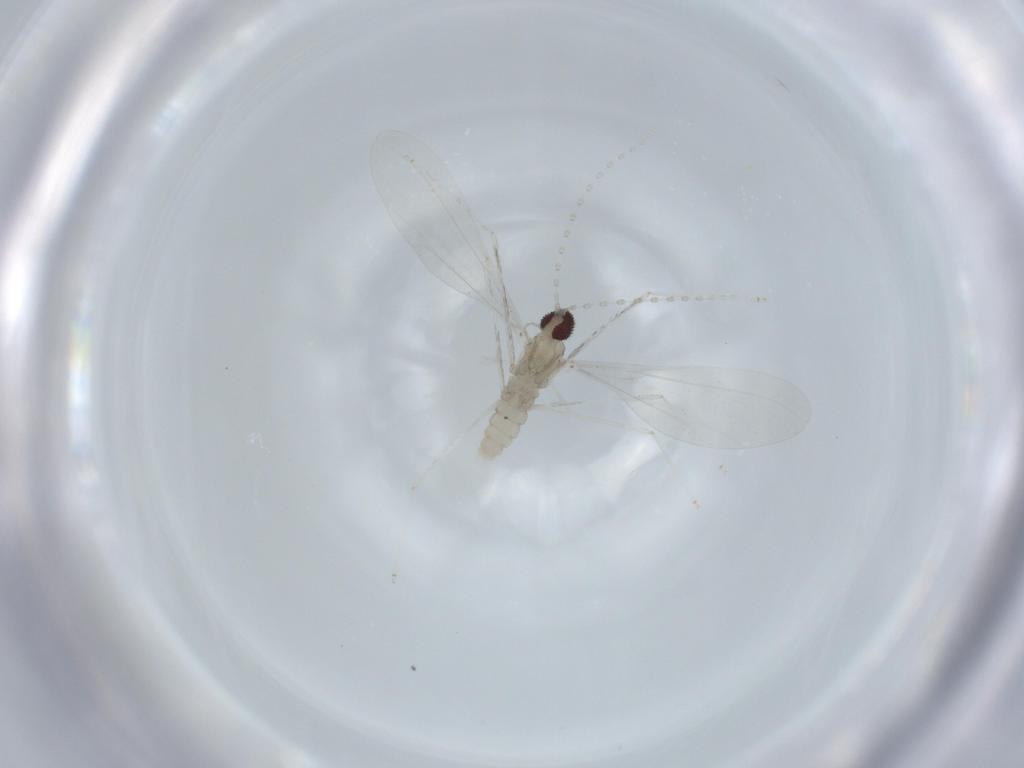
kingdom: Animalia
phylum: Arthropoda
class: Insecta
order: Diptera
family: Cecidomyiidae
